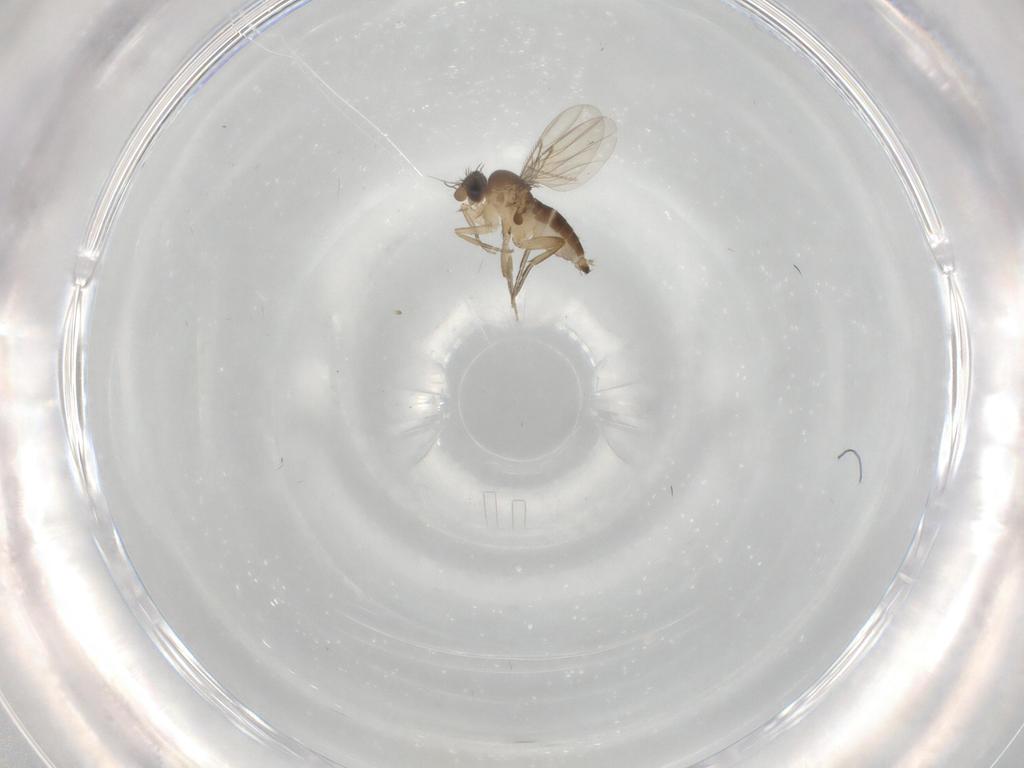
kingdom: Animalia
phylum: Arthropoda
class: Insecta
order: Diptera
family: Phoridae
